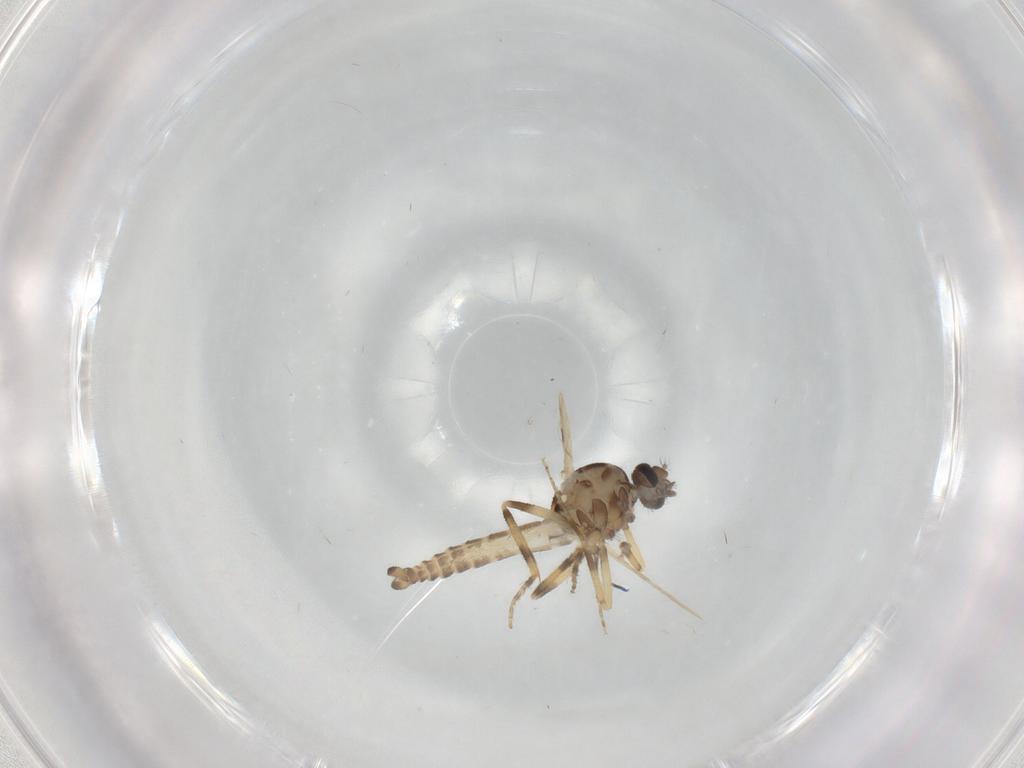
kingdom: Animalia
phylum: Arthropoda
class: Insecta
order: Diptera
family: Ceratopogonidae
